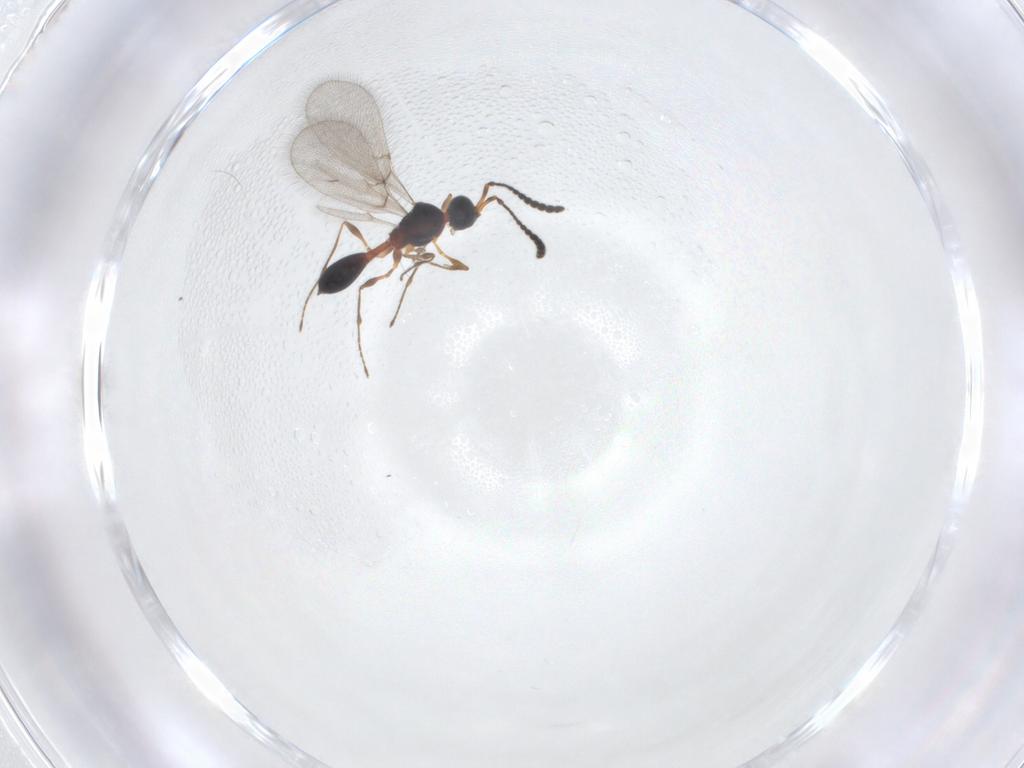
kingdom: Animalia
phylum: Arthropoda
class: Insecta
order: Hymenoptera
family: Diapriidae
